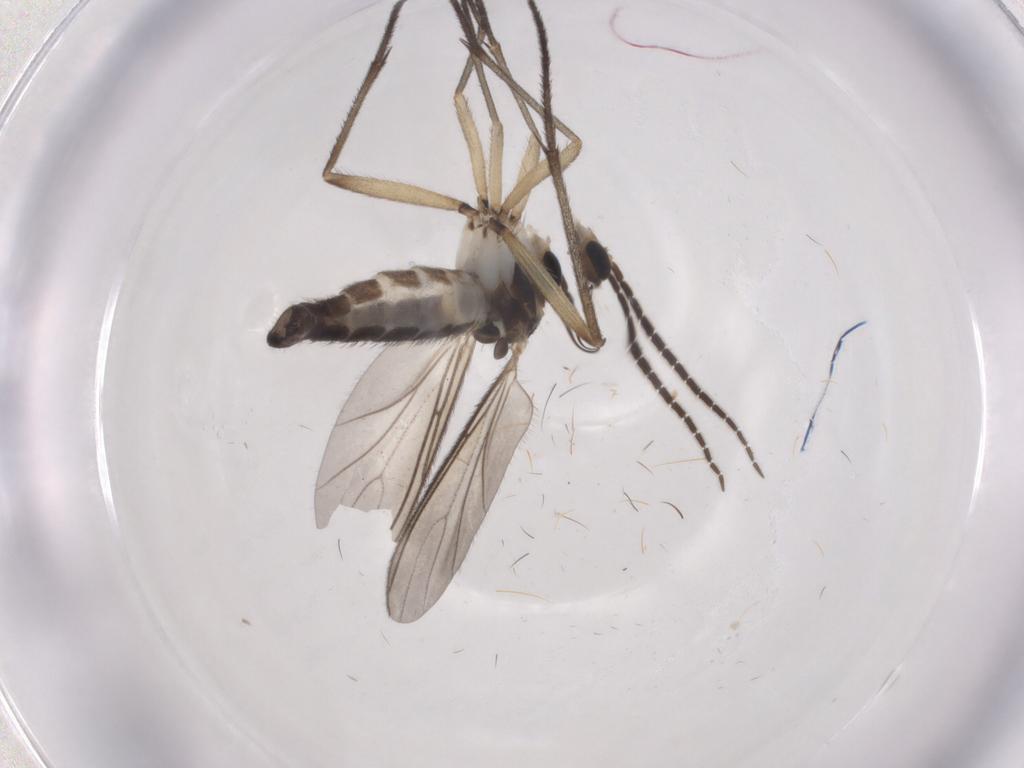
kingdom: Animalia
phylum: Arthropoda
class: Insecta
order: Diptera
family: Sciaridae
